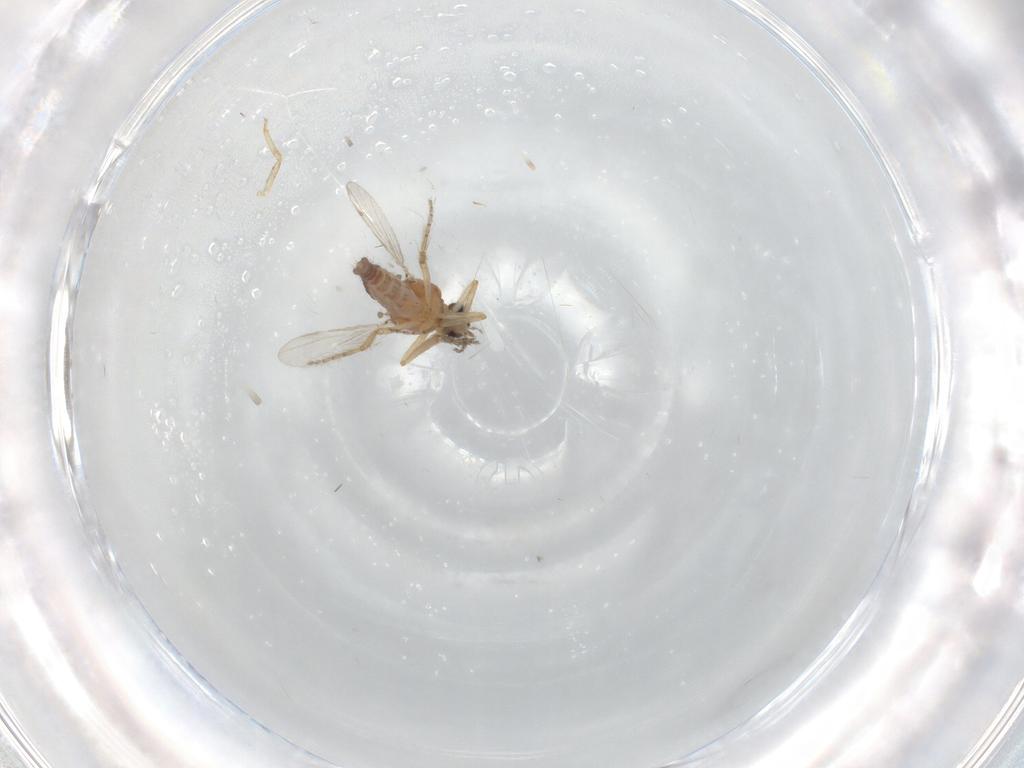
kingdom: Animalia
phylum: Arthropoda
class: Insecta
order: Diptera
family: Ceratopogonidae
